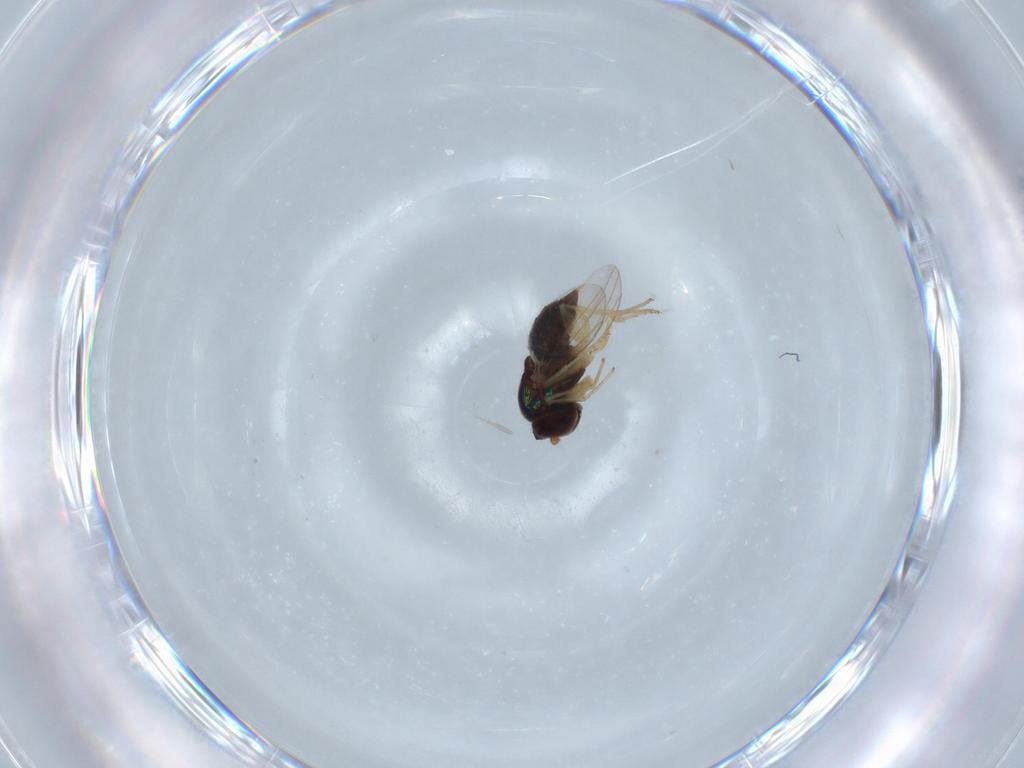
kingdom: Animalia
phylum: Arthropoda
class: Insecta
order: Diptera
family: Dolichopodidae
